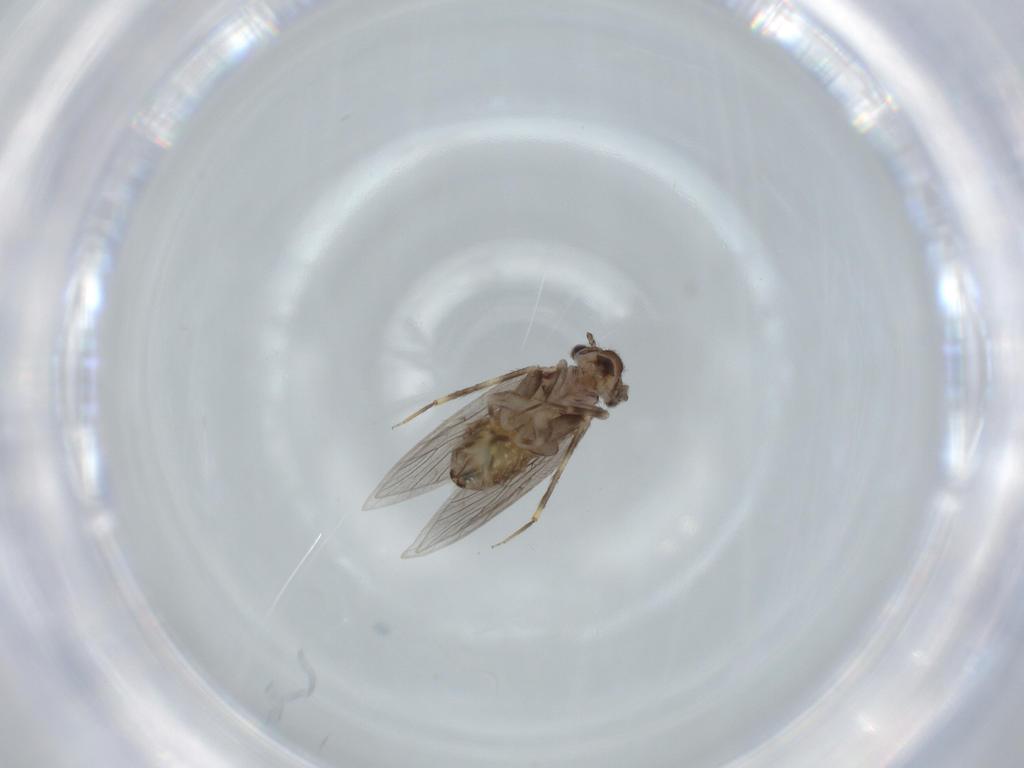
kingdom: Animalia
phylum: Arthropoda
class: Insecta
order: Psocodea
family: Lepidopsocidae
